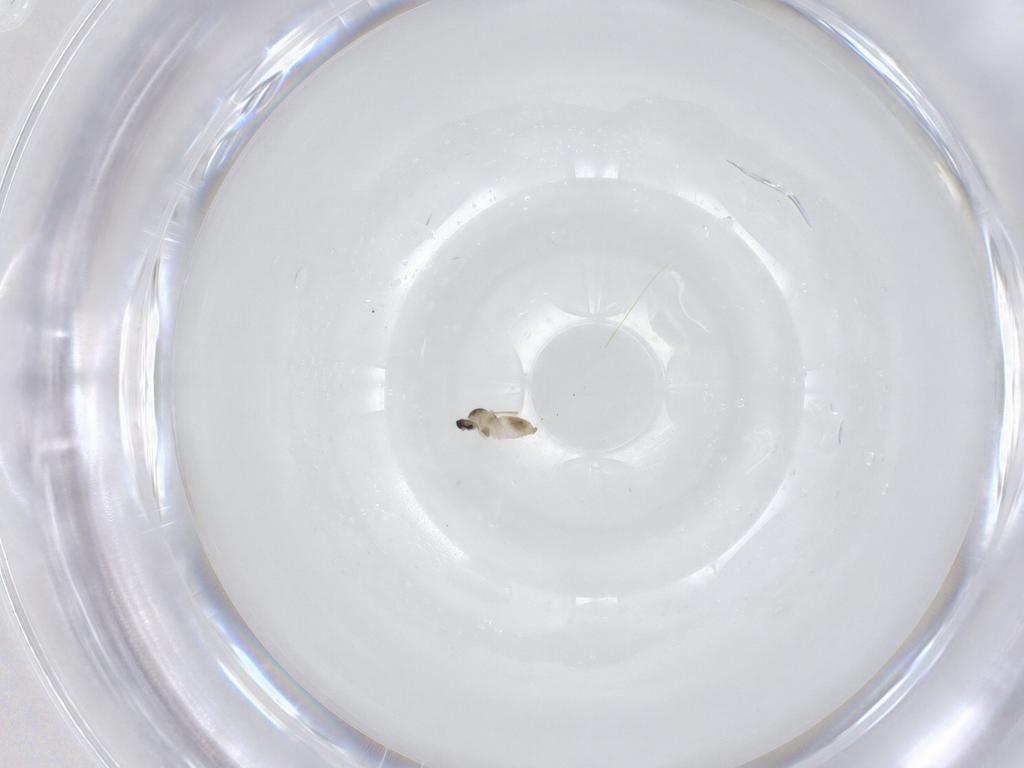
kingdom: Animalia
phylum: Arthropoda
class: Insecta
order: Diptera
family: Cecidomyiidae
